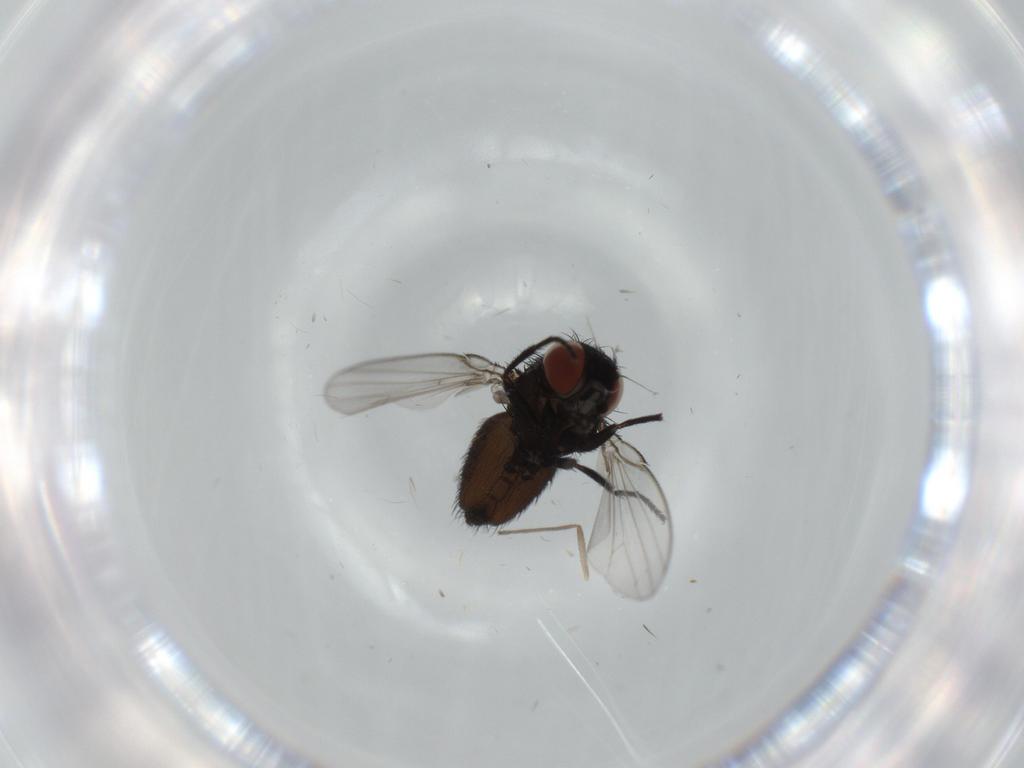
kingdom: Animalia
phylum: Arthropoda
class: Insecta
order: Diptera
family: Milichiidae
